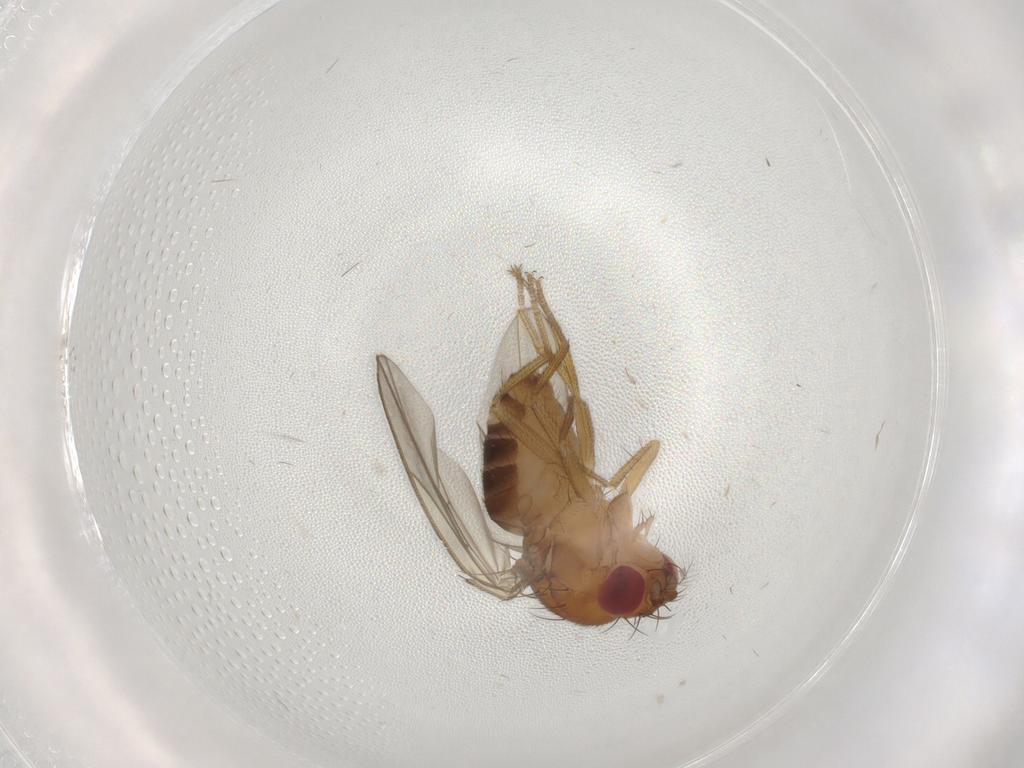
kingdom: Animalia
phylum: Arthropoda
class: Insecta
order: Diptera
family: Drosophilidae
